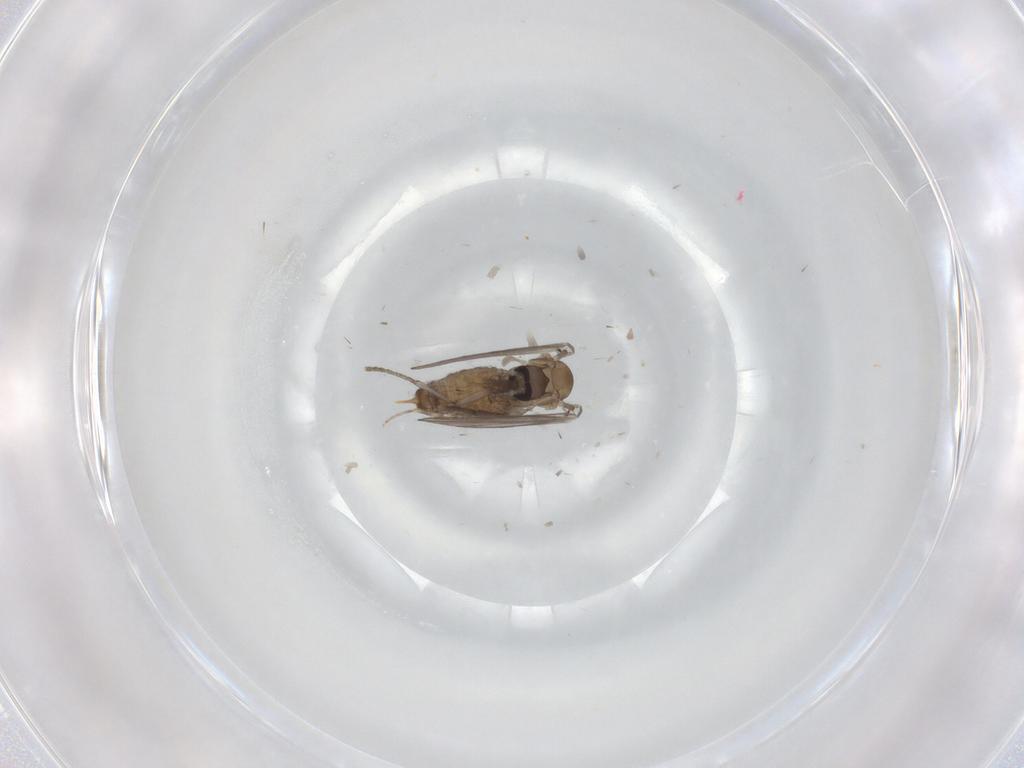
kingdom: Animalia
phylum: Arthropoda
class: Insecta
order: Diptera
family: Psychodidae
